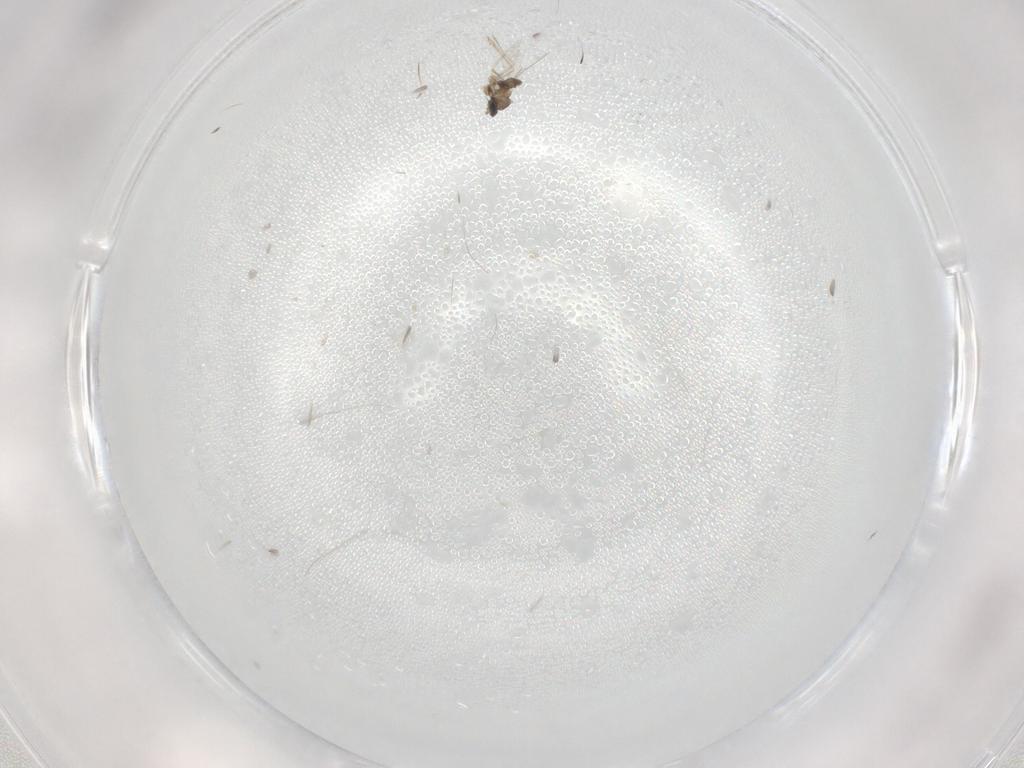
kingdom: Animalia
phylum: Arthropoda
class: Insecta
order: Diptera
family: Cecidomyiidae
